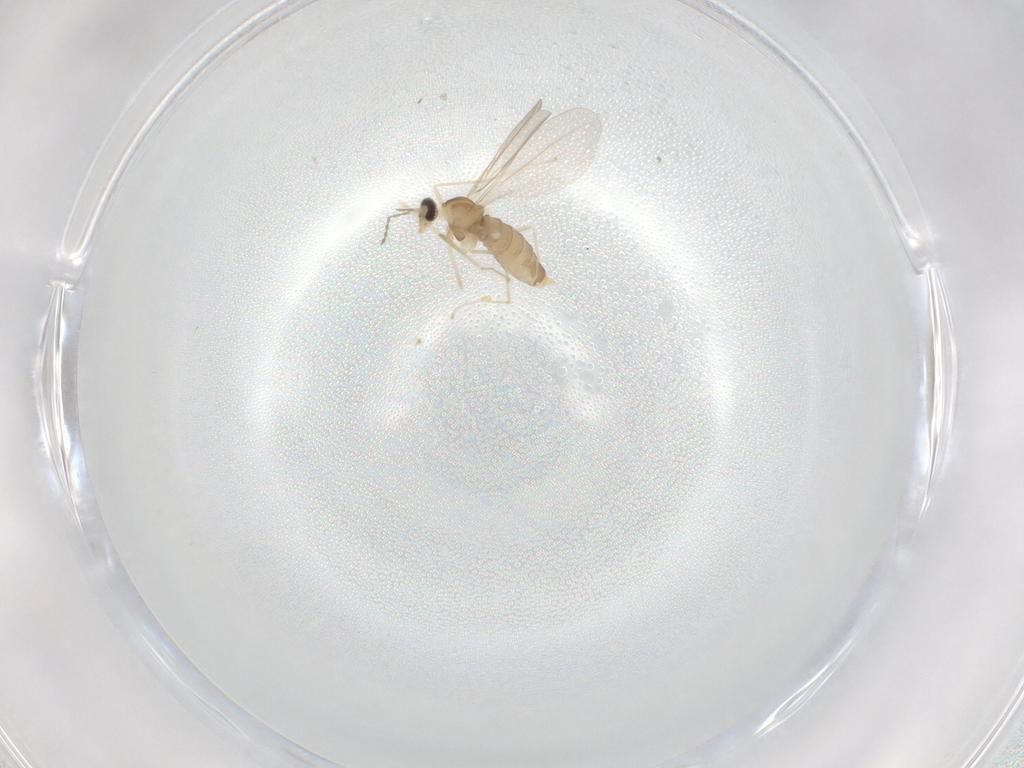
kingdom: Animalia
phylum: Arthropoda
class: Insecta
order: Diptera
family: Cecidomyiidae
